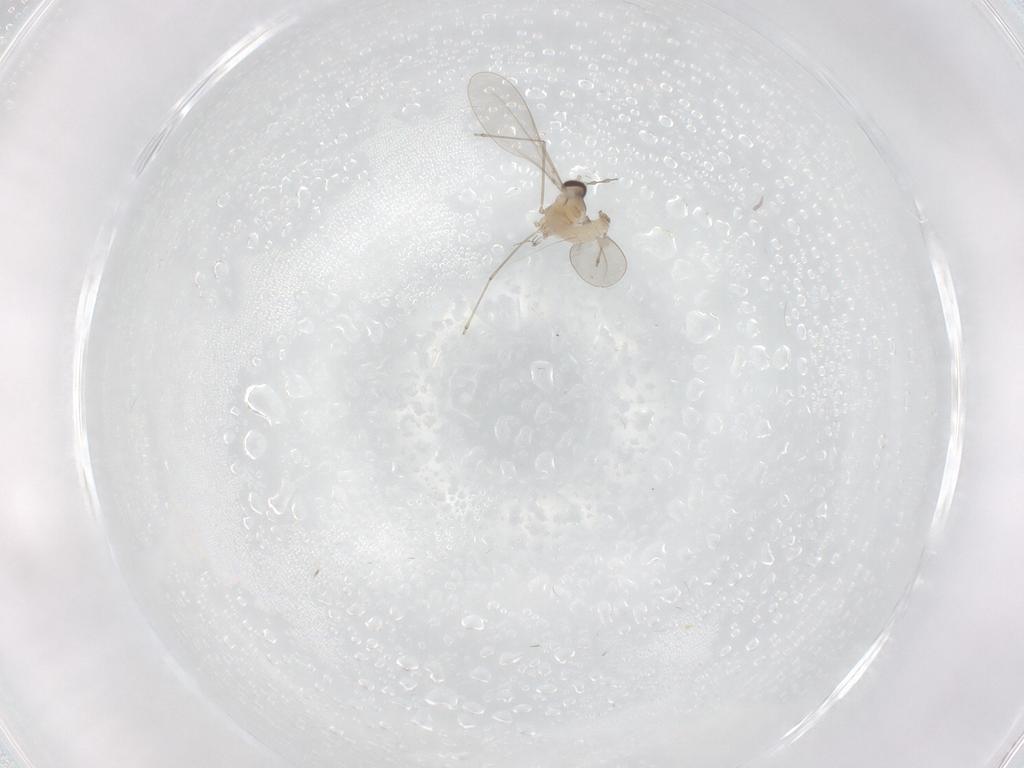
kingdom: Animalia
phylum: Arthropoda
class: Insecta
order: Diptera
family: Cecidomyiidae
